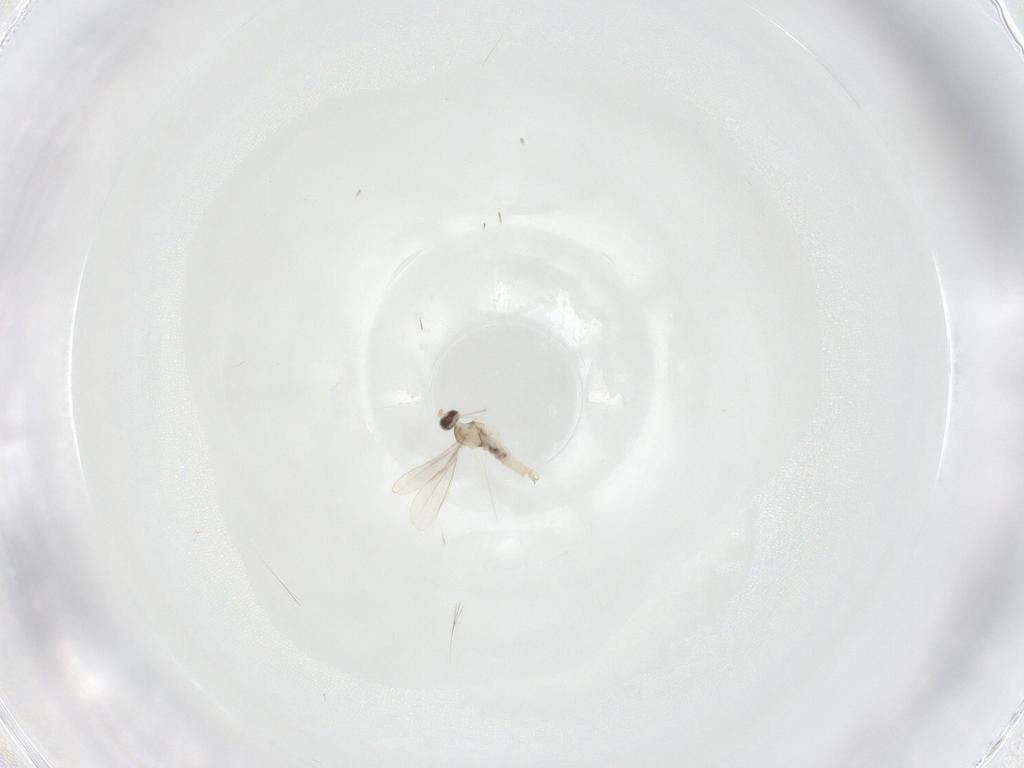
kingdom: Animalia
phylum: Arthropoda
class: Insecta
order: Diptera
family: Cecidomyiidae
